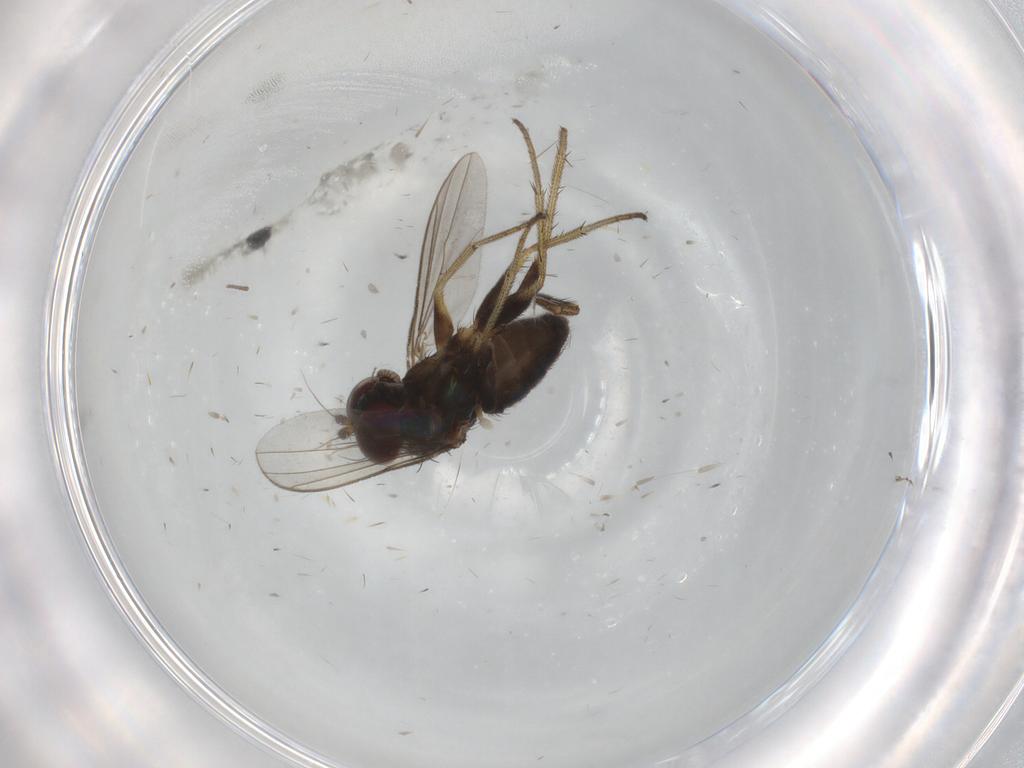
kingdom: Animalia
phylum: Arthropoda
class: Insecta
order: Diptera
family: Ceratopogonidae
